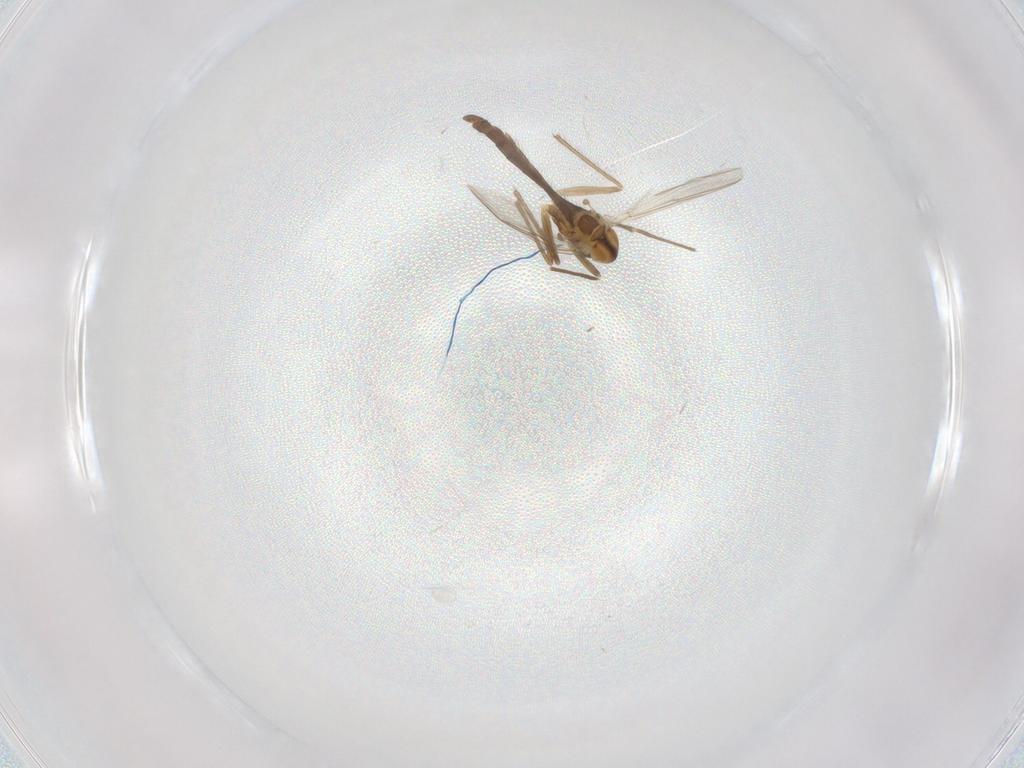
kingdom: Animalia
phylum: Arthropoda
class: Insecta
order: Diptera
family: Chironomidae
